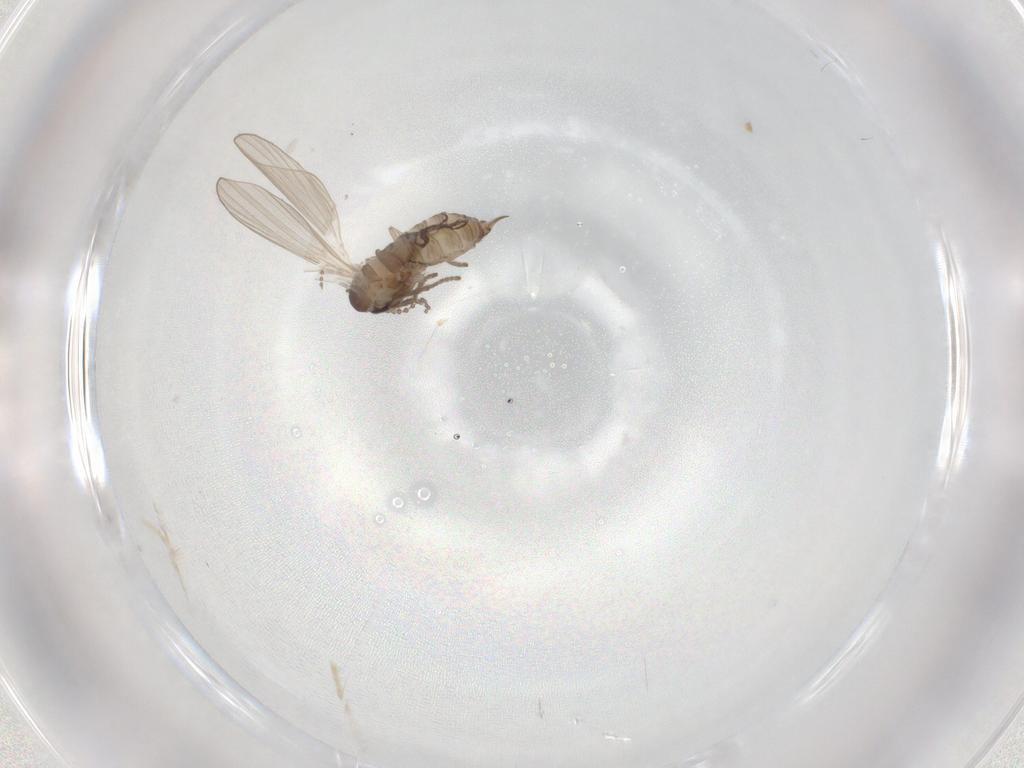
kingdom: Animalia
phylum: Arthropoda
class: Insecta
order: Diptera
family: Psychodidae
